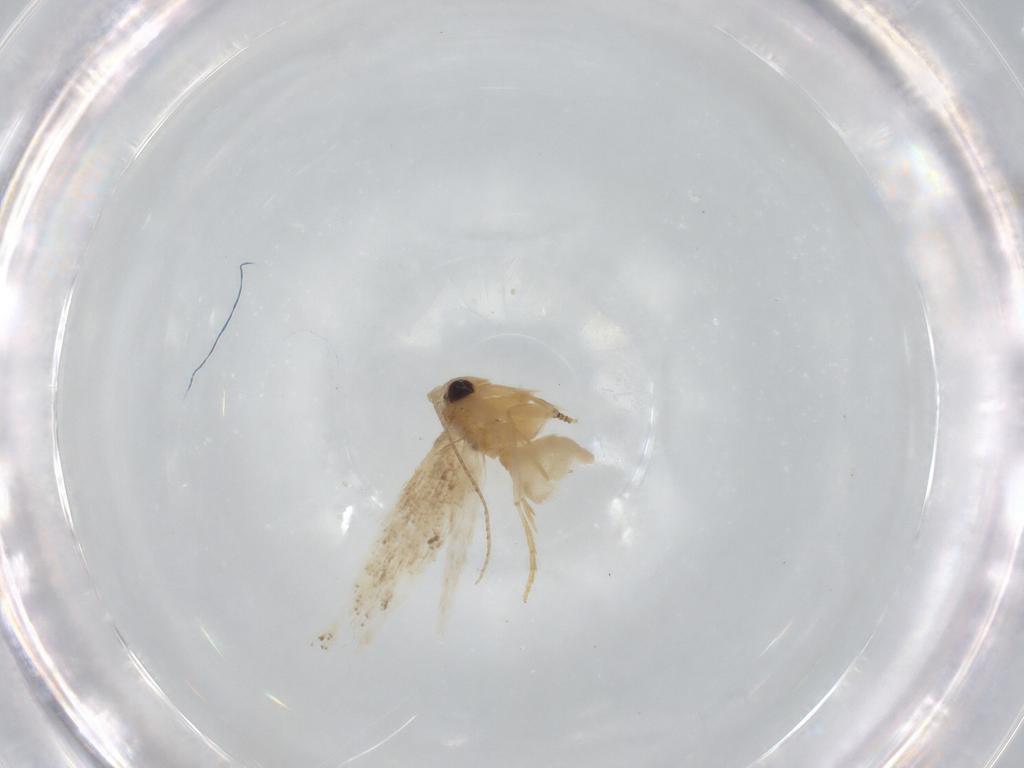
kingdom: Animalia
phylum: Arthropoda
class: Insecta
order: Lepidoptera
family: Bucculatricidae
